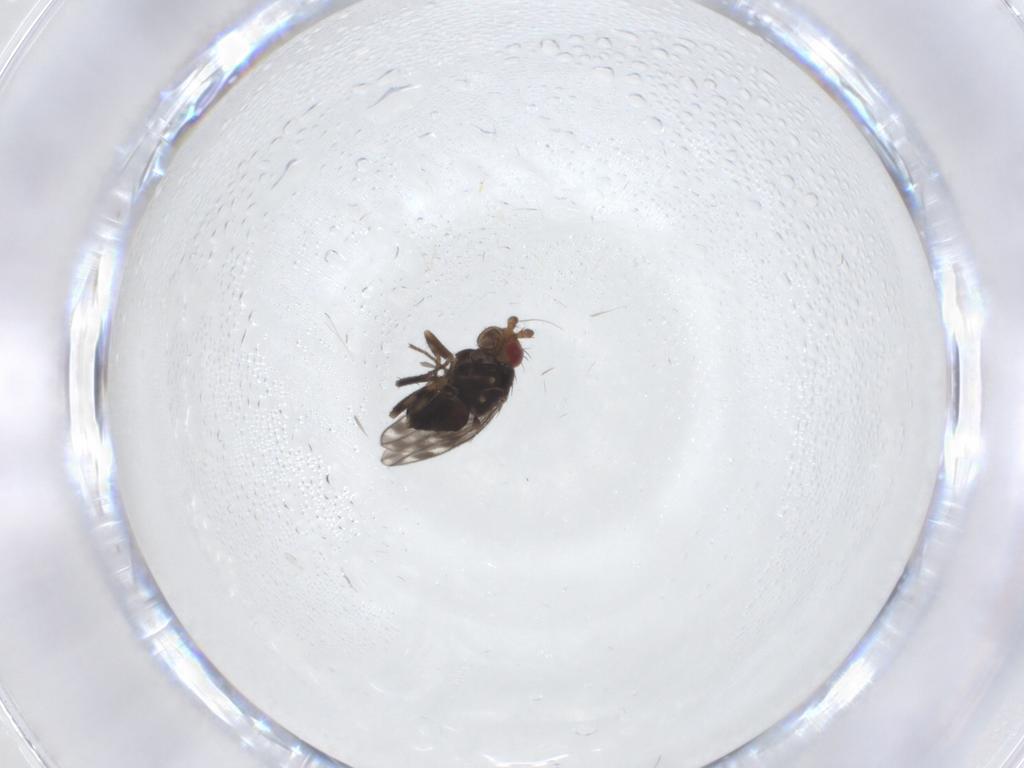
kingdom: Animalia
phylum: Arthropoda
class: Insecta
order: Diptera
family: Sphaeroceridae
